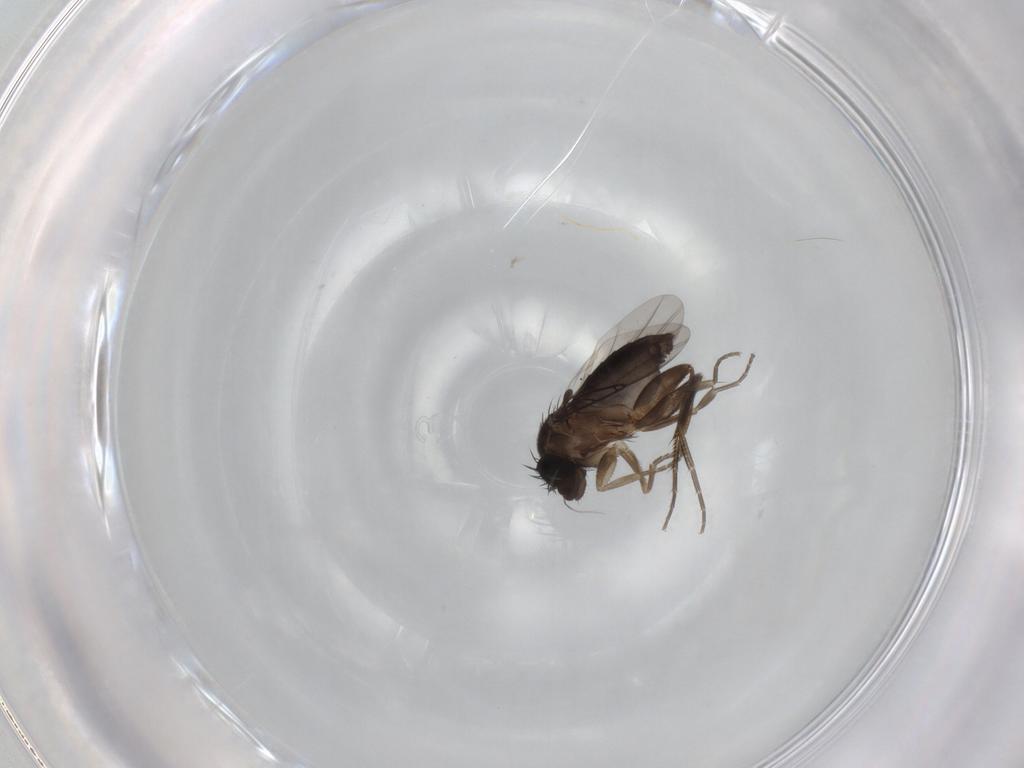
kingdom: Animalia
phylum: Arthropoda
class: Insecta
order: Diptera
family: Phoridae
